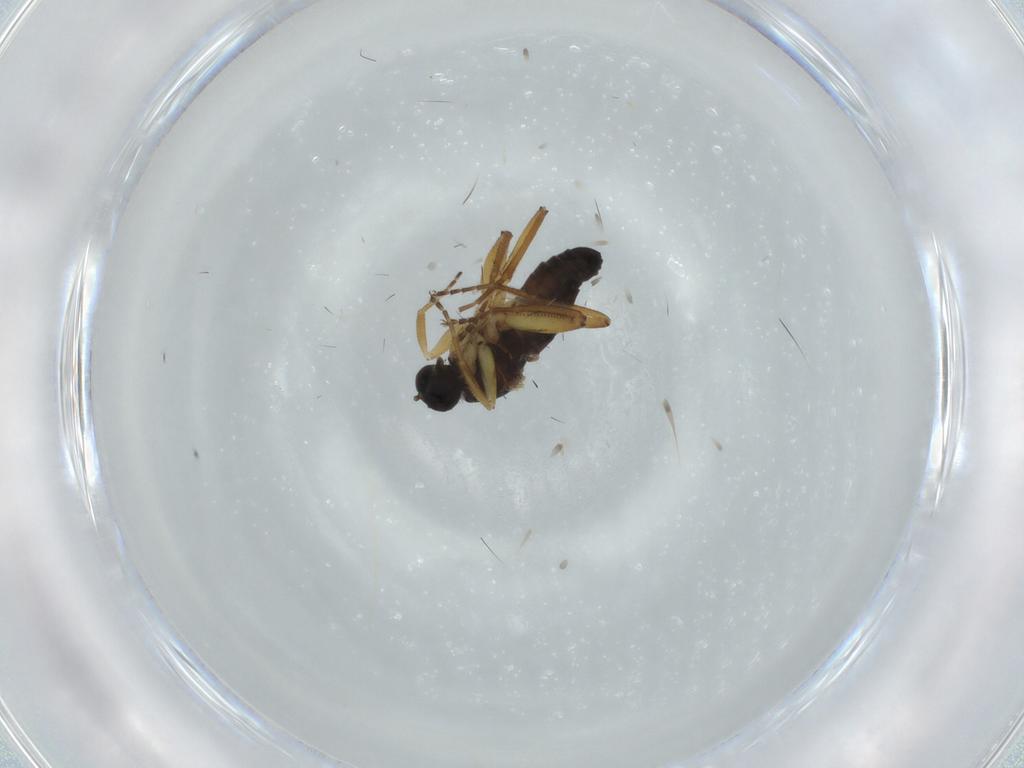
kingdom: Animalia
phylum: Arthropoda
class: Insecta
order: Diptera
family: Hybotidae
